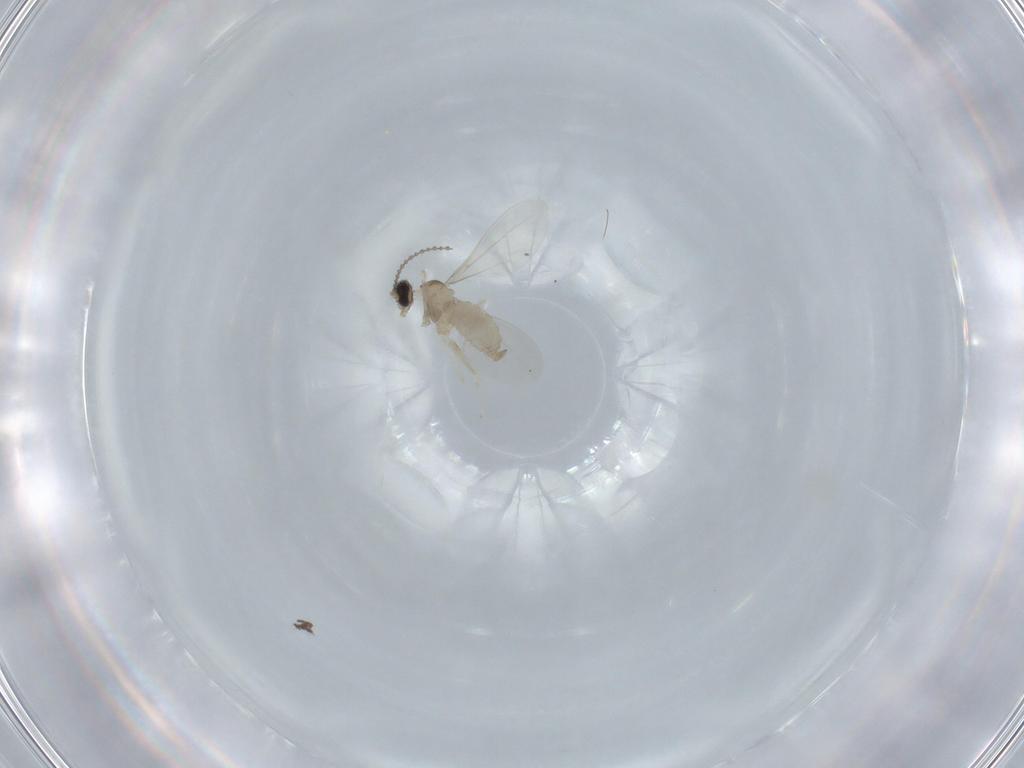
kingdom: Animalia
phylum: Arthropoda
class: Insecta
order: Diptera
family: Cecidomyiidae
